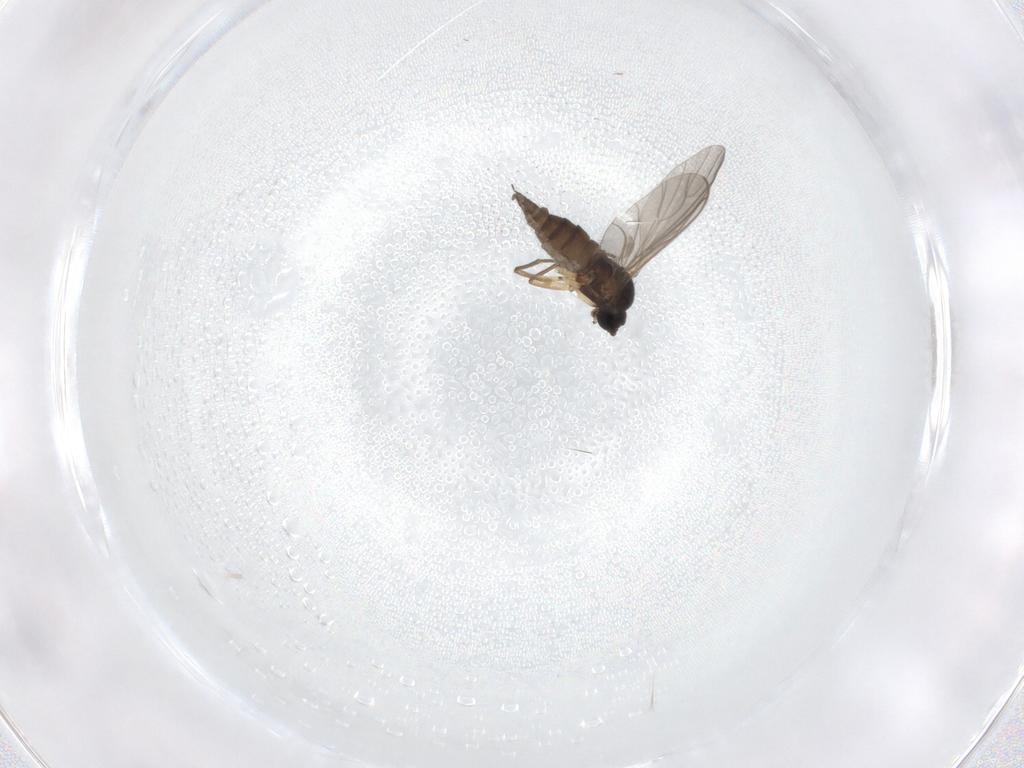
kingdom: Animalia
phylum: Arthropoda
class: Insecta
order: Diptera
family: Sciaridae
